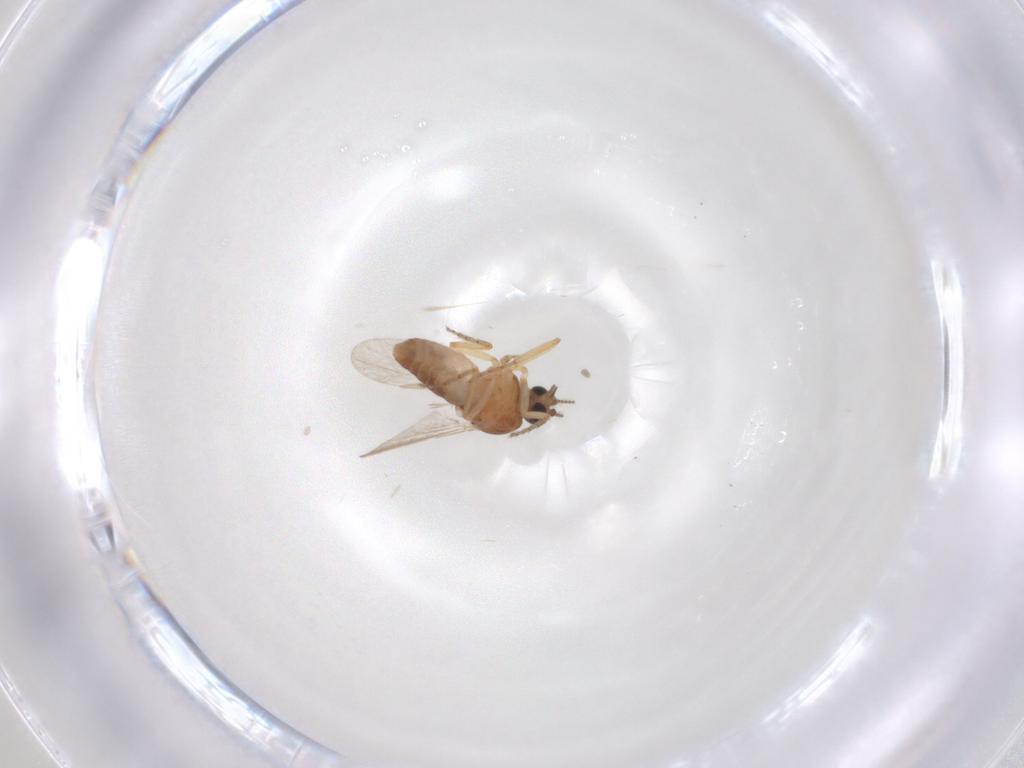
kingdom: Animalia
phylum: Arthropoda
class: Insecta
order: Diptera
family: Ceratopogonidae
